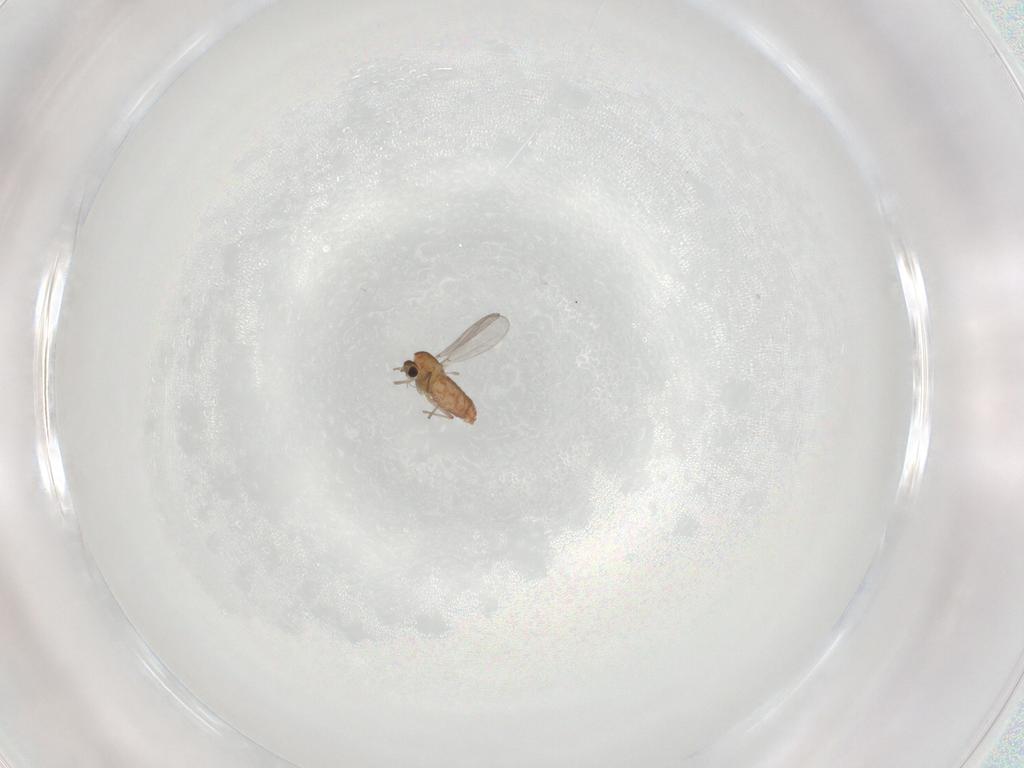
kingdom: Animalia
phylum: Arthropoda
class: Insecta
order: Diptera
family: Chironomidae
